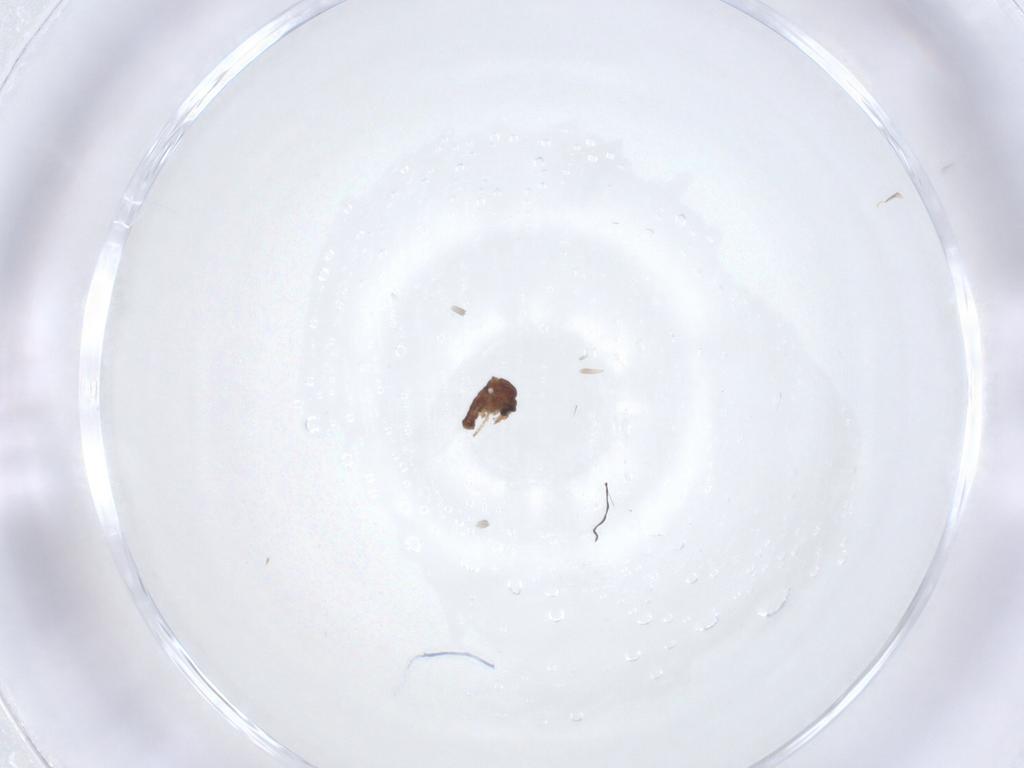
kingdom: Animalia
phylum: Arthropoda
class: Insecta
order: Diptera
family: Ceratopogonidae
